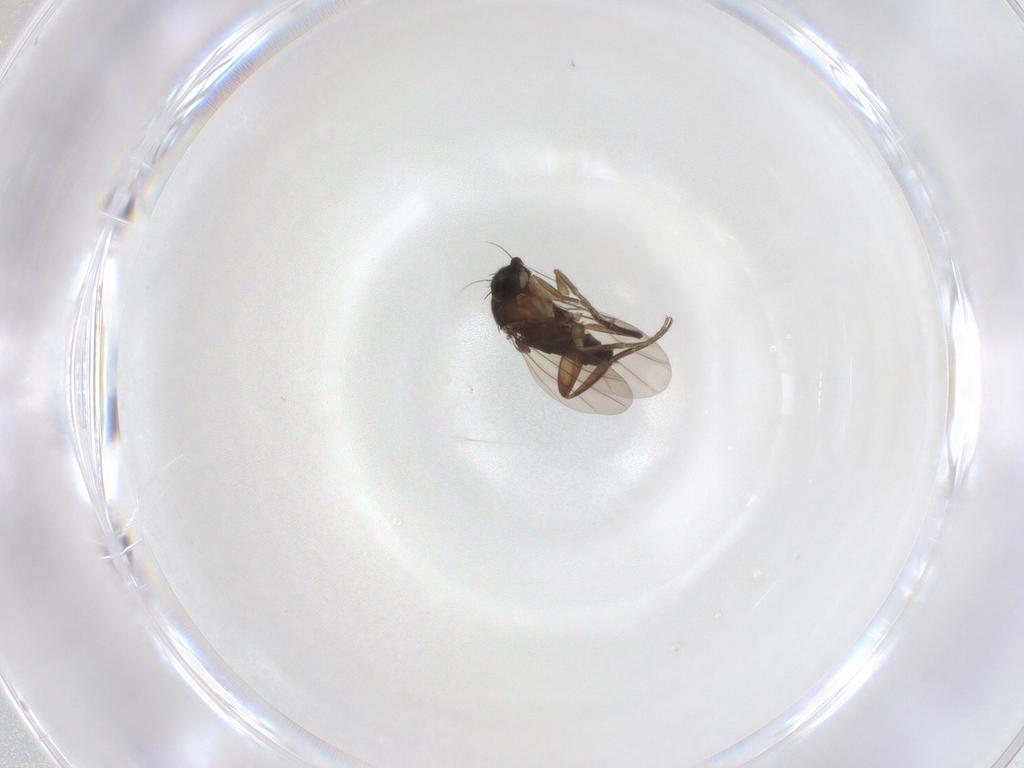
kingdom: Animalia
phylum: Arthropoda
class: Insecta
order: Diptera
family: Phoridae
